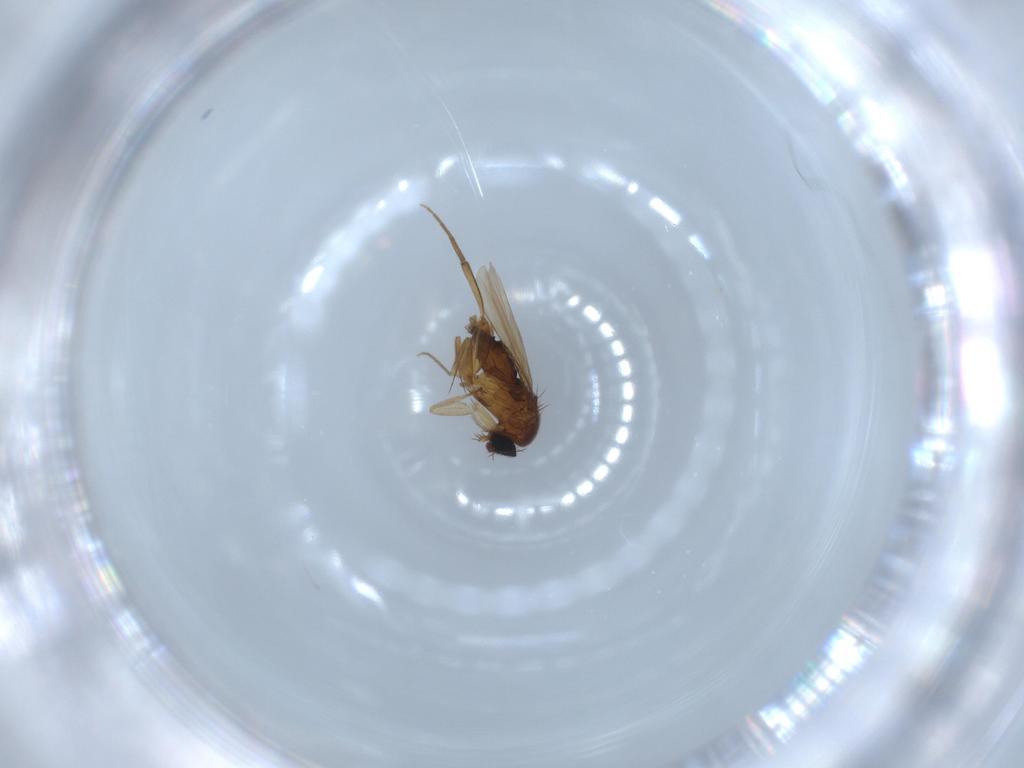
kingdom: Animalia
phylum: Arthropoda
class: Insecta
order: Diptera
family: Phoridae
